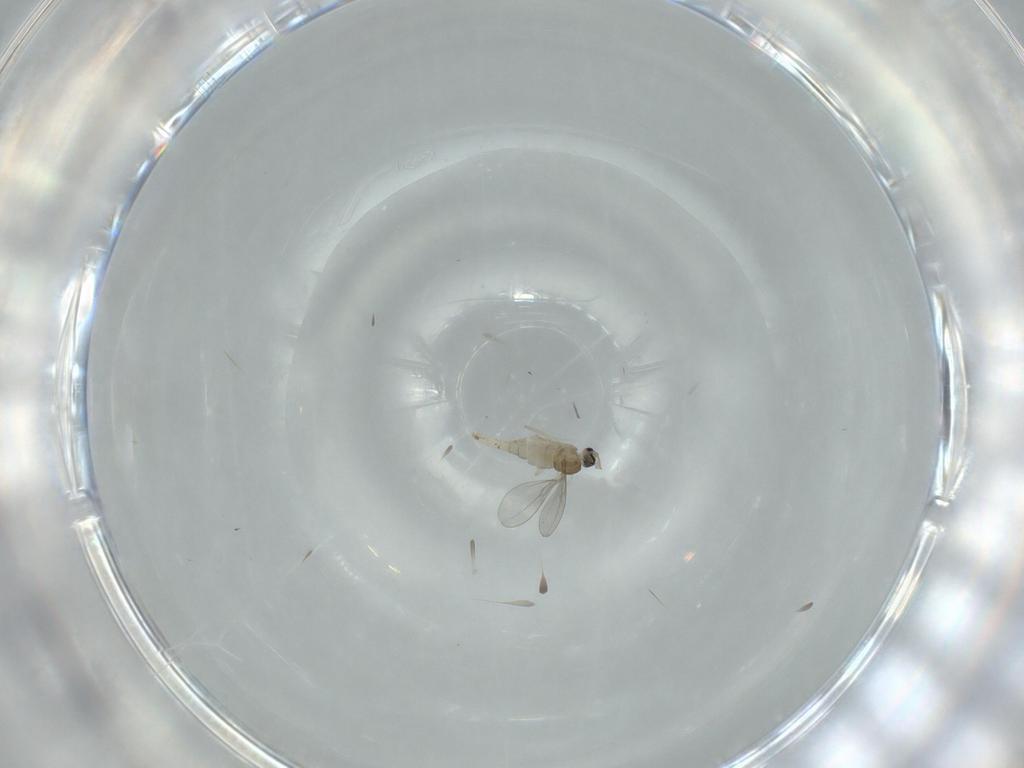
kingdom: Animalia
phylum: Arthropoda
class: Insecta
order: Diptera
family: Cecidomyiidae
